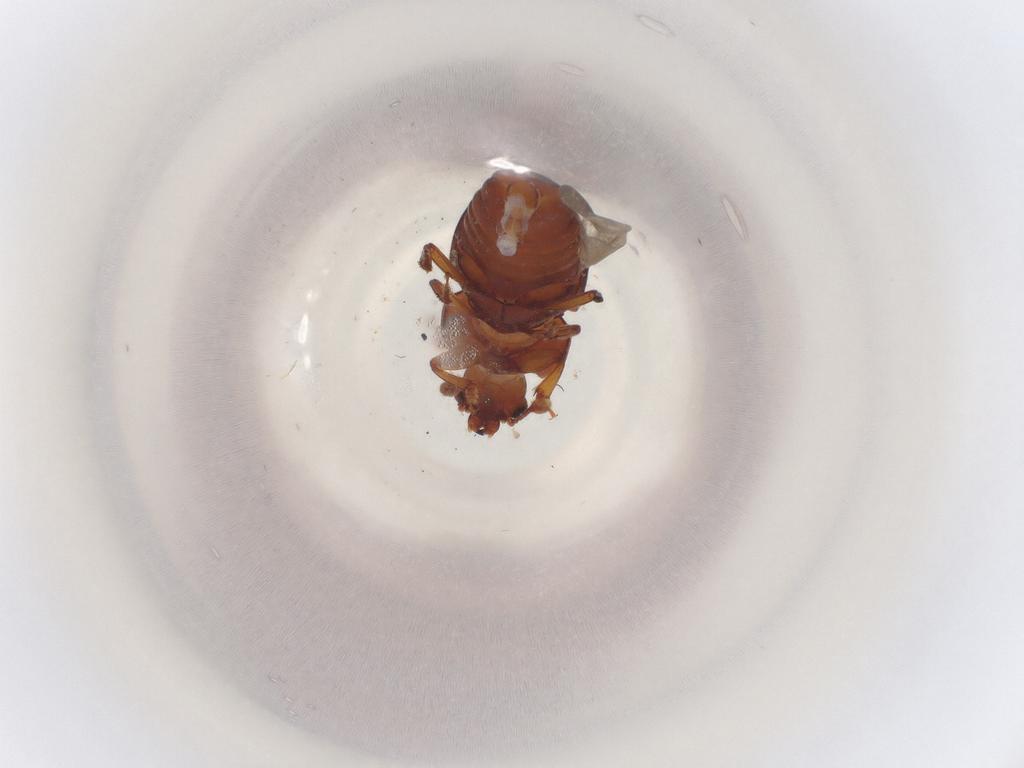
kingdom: Animalia
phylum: Arthropoda
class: Insecta
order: Coleoptera
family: Nitidulidae
